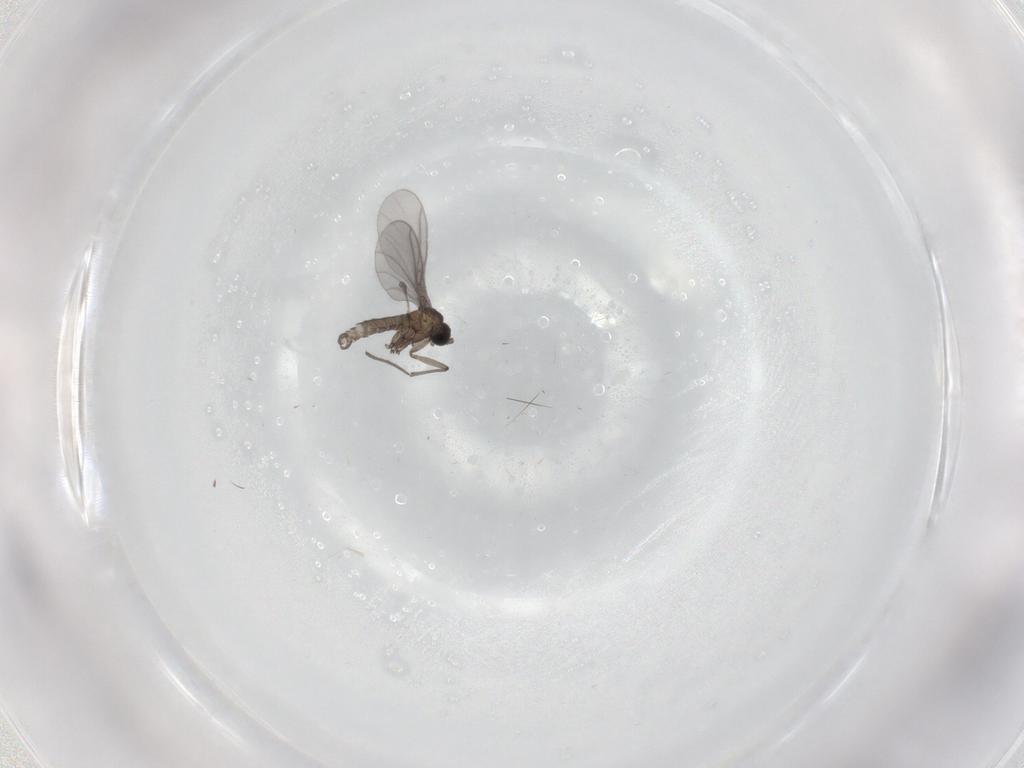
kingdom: Animalia
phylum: Arthropoda
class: Insecta
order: Diptera
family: Sciaridae
